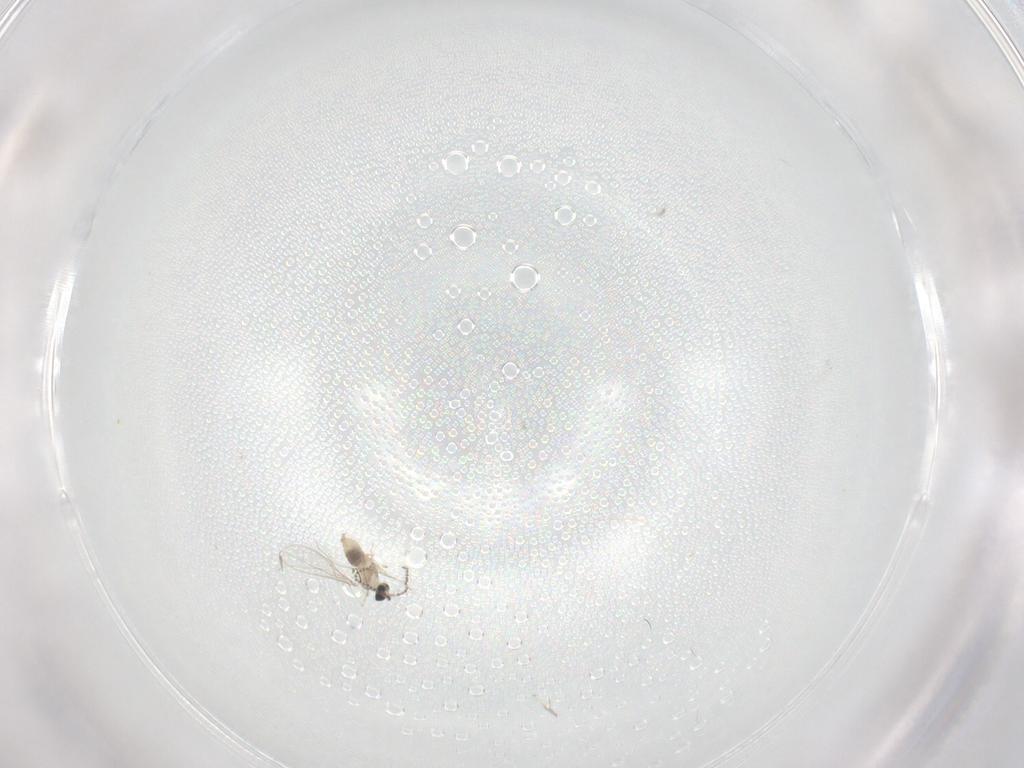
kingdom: Animalia
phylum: Arthropoda
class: Insecta
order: Diptera
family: Cecidomyiidae
